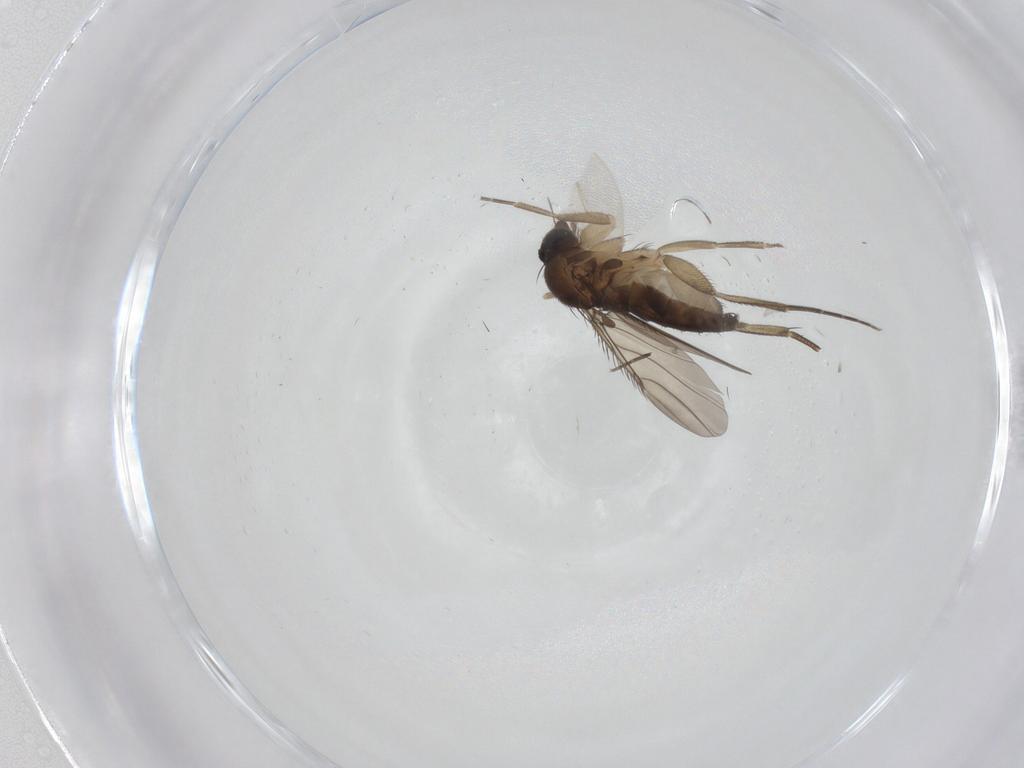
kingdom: Animalia
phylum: Arthropoda
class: Insecta
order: Diptera
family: Phoridae
